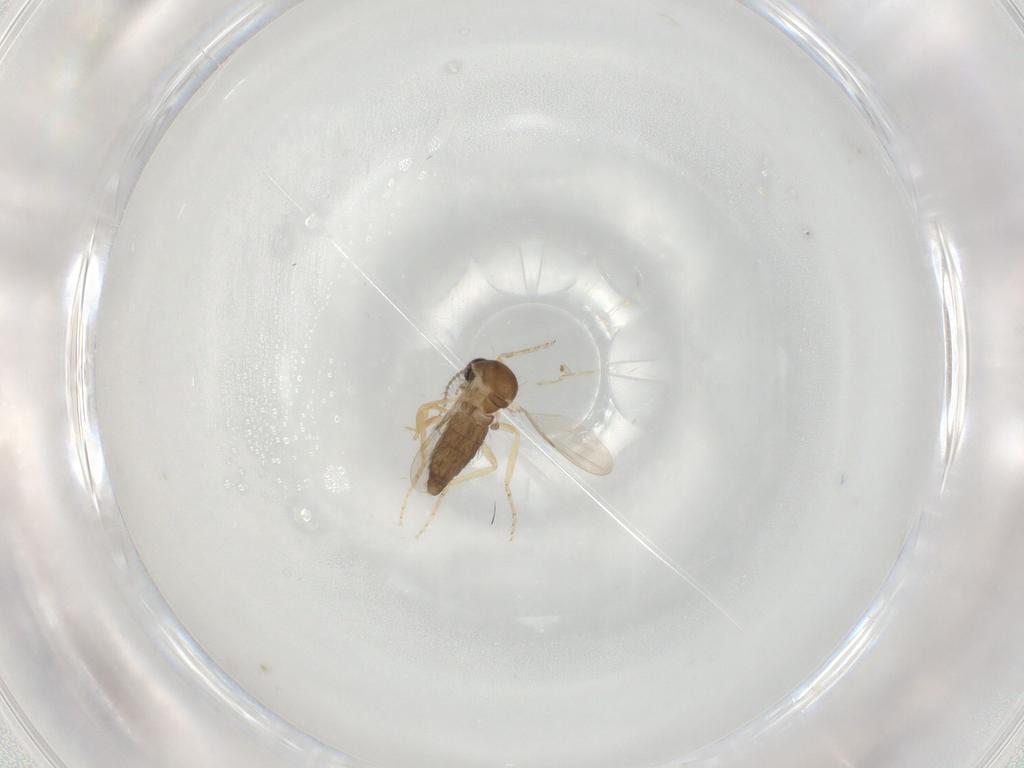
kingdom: Animalia
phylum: Arthropoda
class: Insecta
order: Diptera
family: Ceratopogonidae
